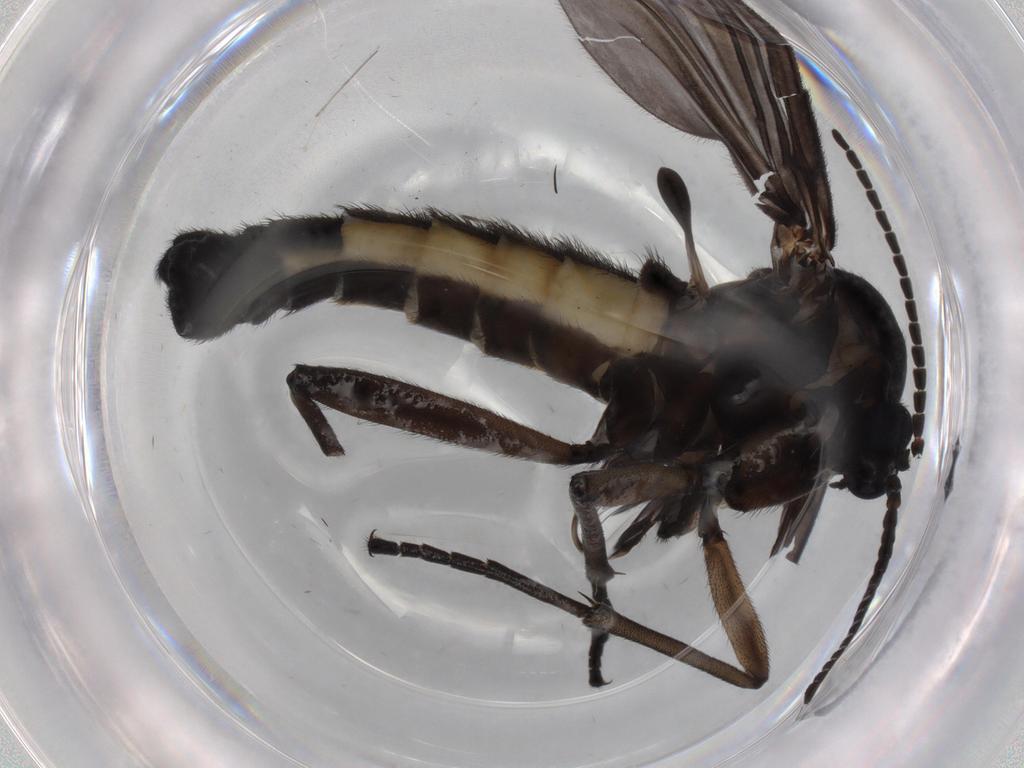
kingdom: Animalia
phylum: Arthropoda
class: Insecta
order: Diptera
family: Sciaridae
